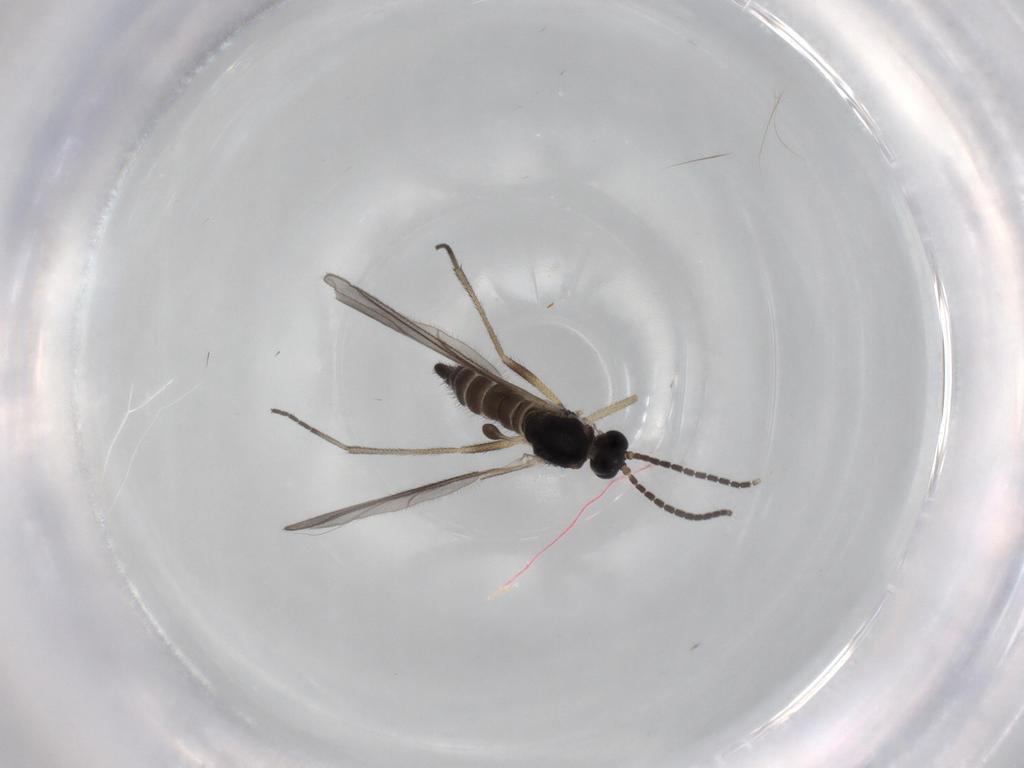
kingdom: Animalia
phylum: Arthropoda
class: Insecta
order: Diptera
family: Sciaridae
